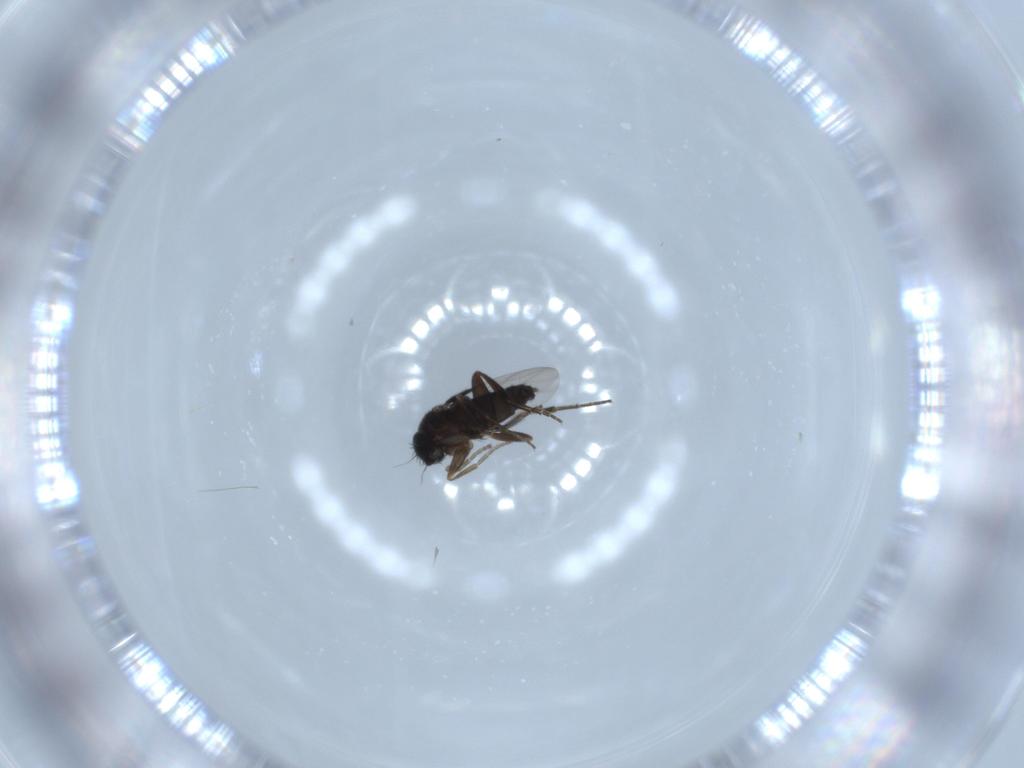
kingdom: Animalia
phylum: Arthropoda
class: Insecta
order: Diptera
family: Phoridae
